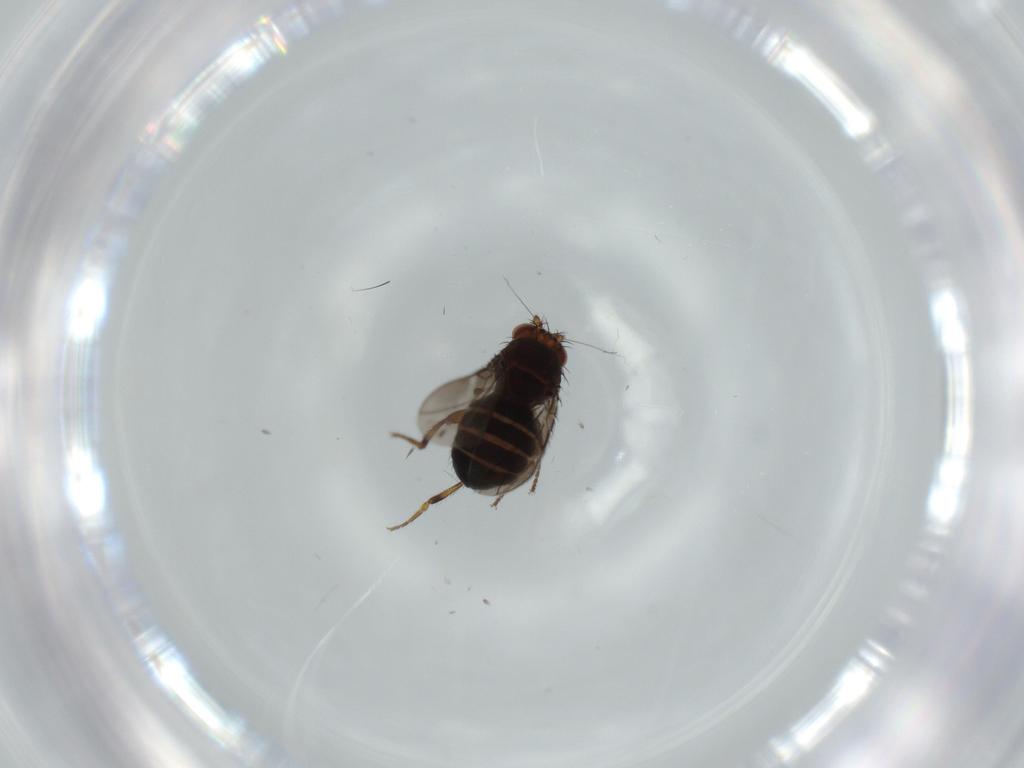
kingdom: Animalia
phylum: Arthropoda
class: Insecta
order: Diptera
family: Sphaeroceridae
